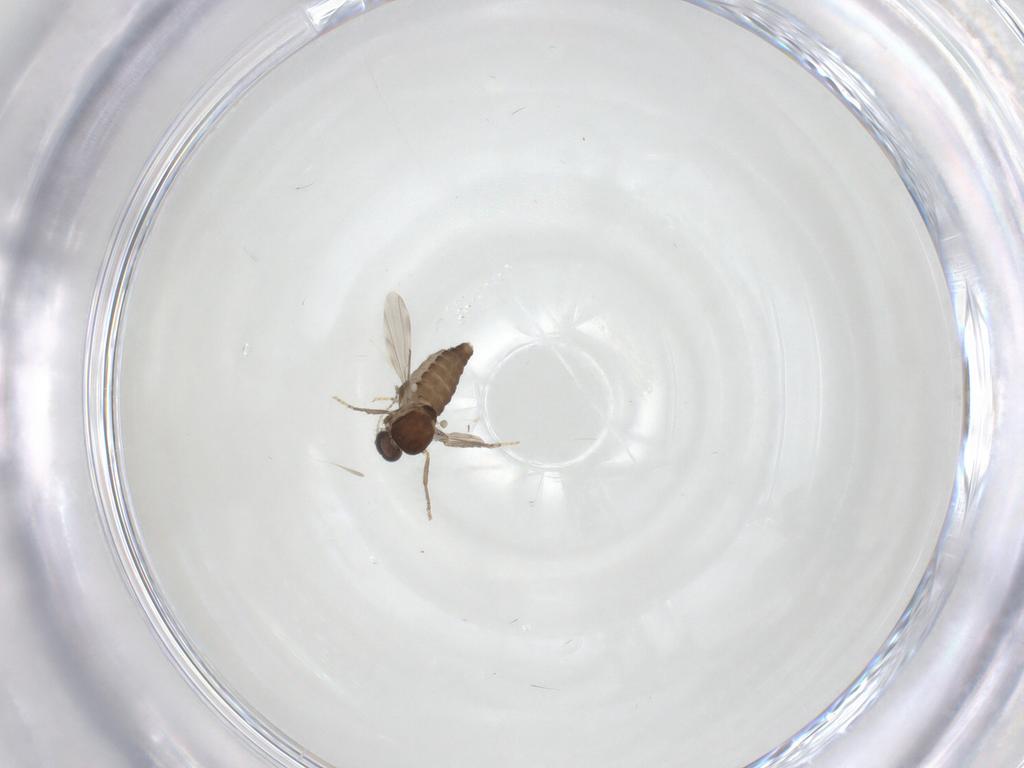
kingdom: Animalia
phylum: Arthropoda
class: Insecta
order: Diptera
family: Ceratopogonidae
